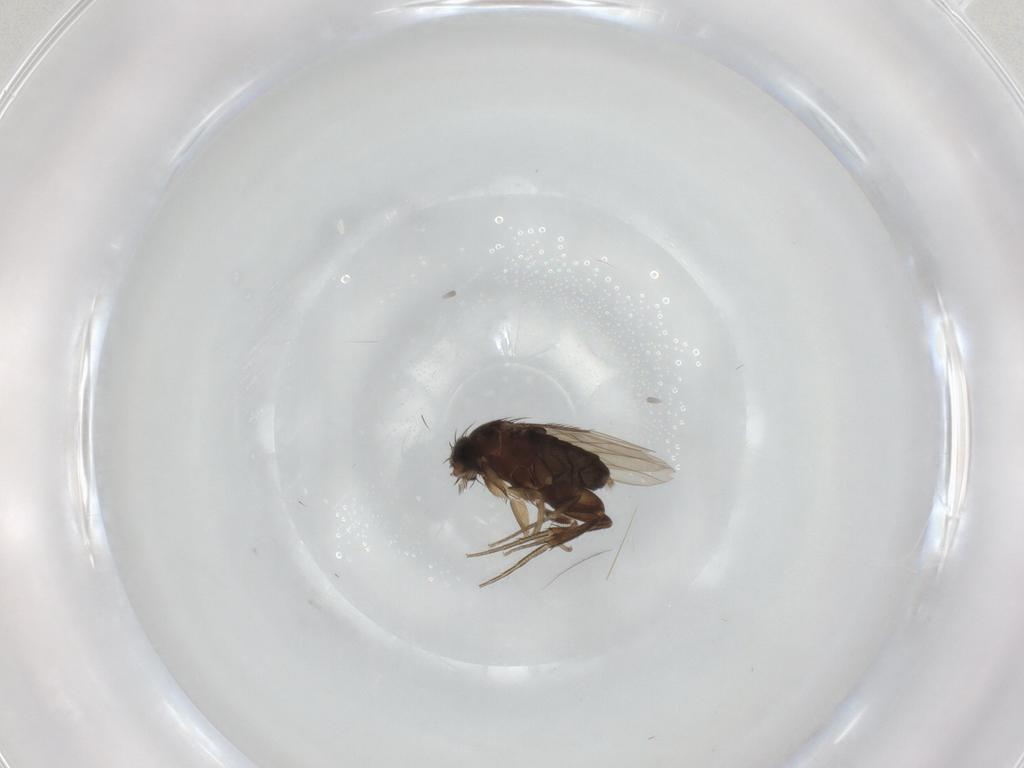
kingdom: Animalia
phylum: Arthropoda
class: Insecta
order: Diptera
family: Phoridae
